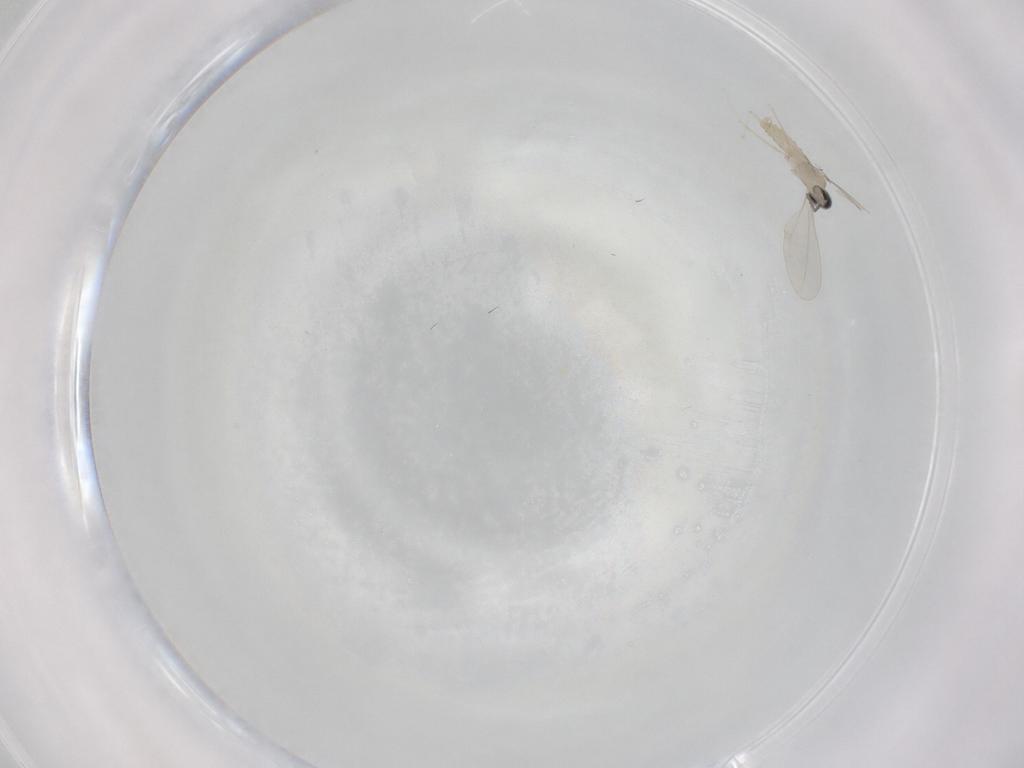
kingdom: Animalia
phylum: Arthropoda
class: Insecta
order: Diptera
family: Cecidomyiidae
